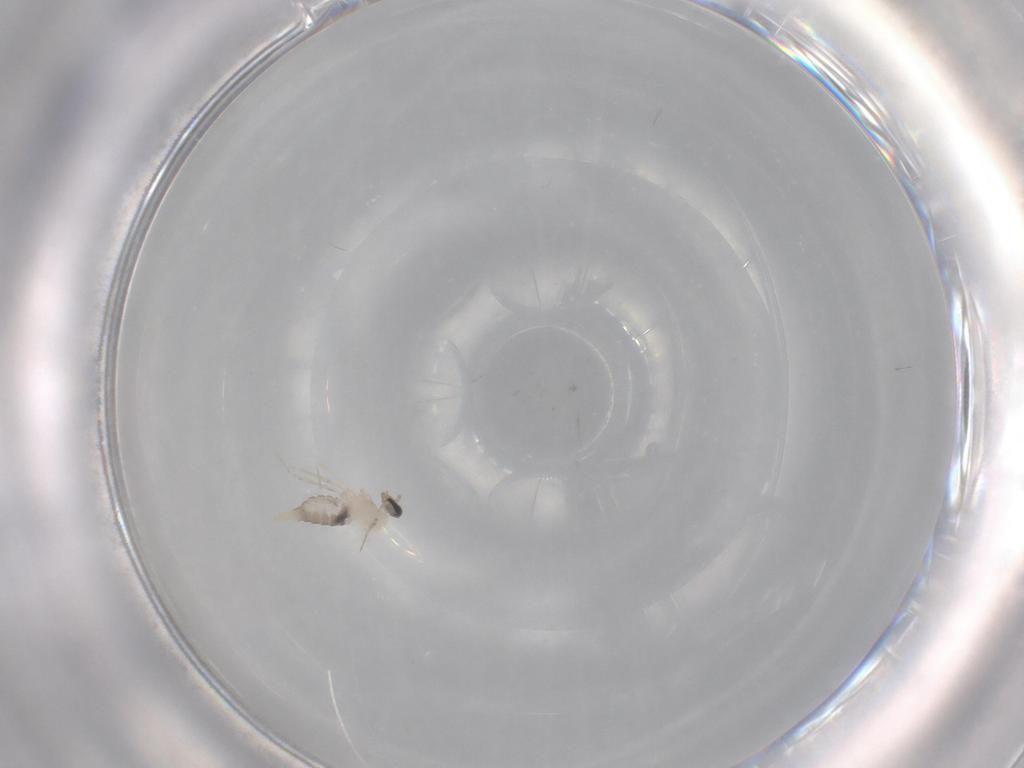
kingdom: Animalia
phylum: Arthropoda
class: Insecta
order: Diptera
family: Cecidomyiidae
